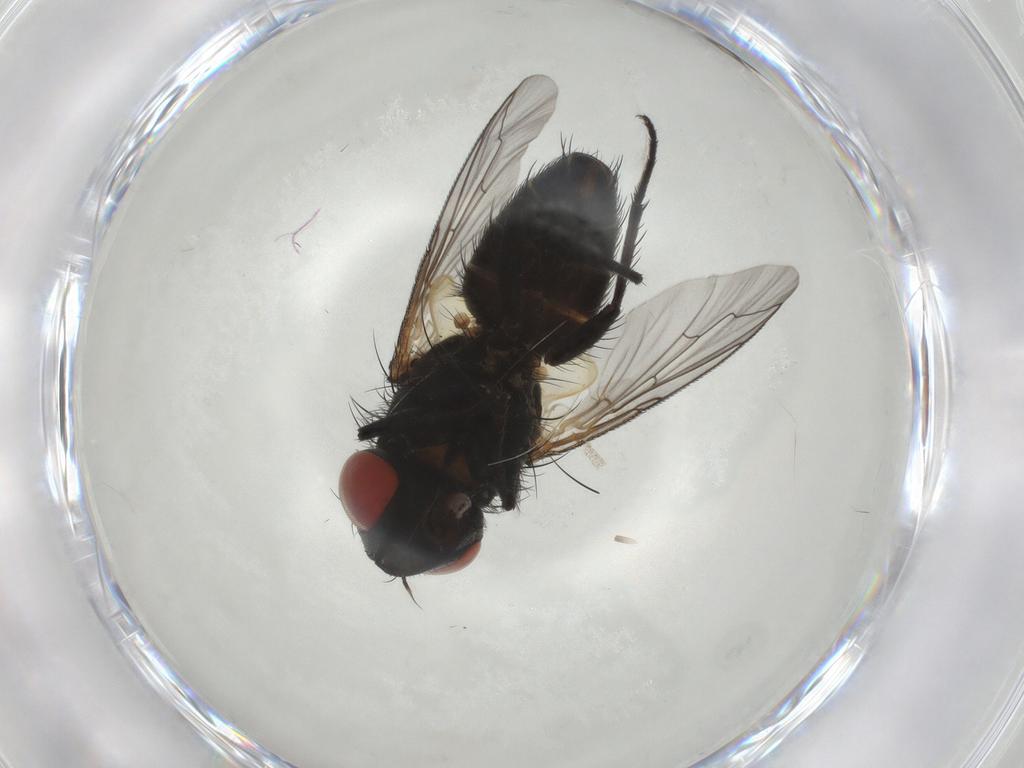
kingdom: Animalia
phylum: Arthropoda
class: Insecta
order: Diptera
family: Sarcophagidae
